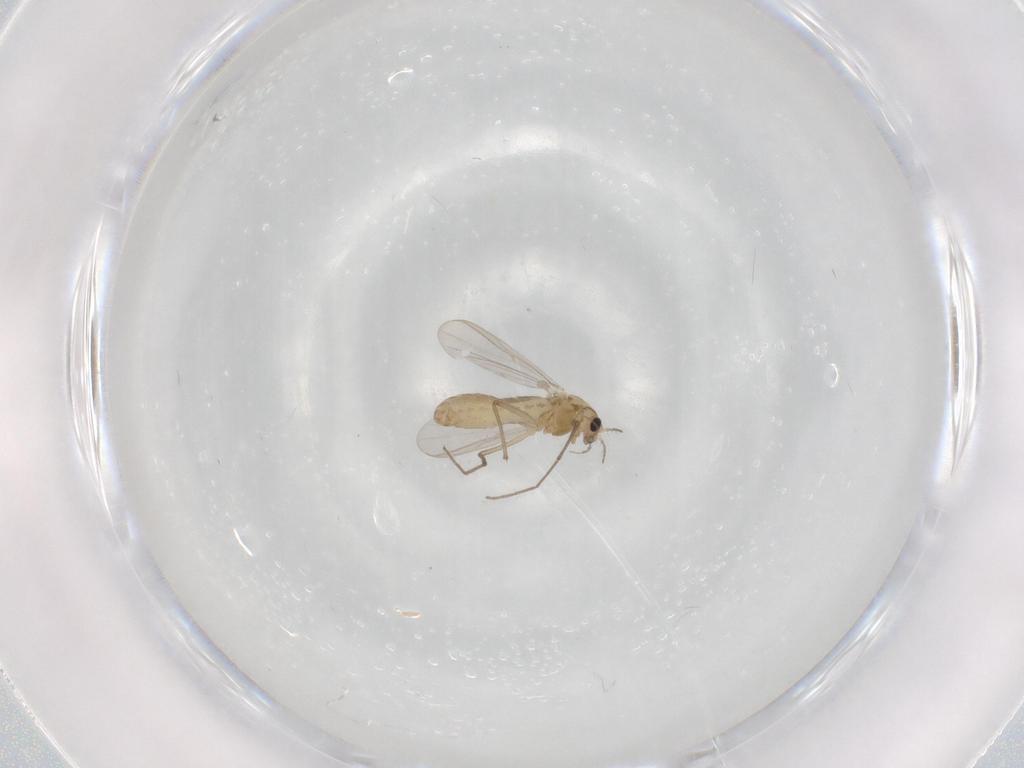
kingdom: Animalia
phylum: Arthropoda
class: Insecta
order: Diptera
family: Chironomidae
